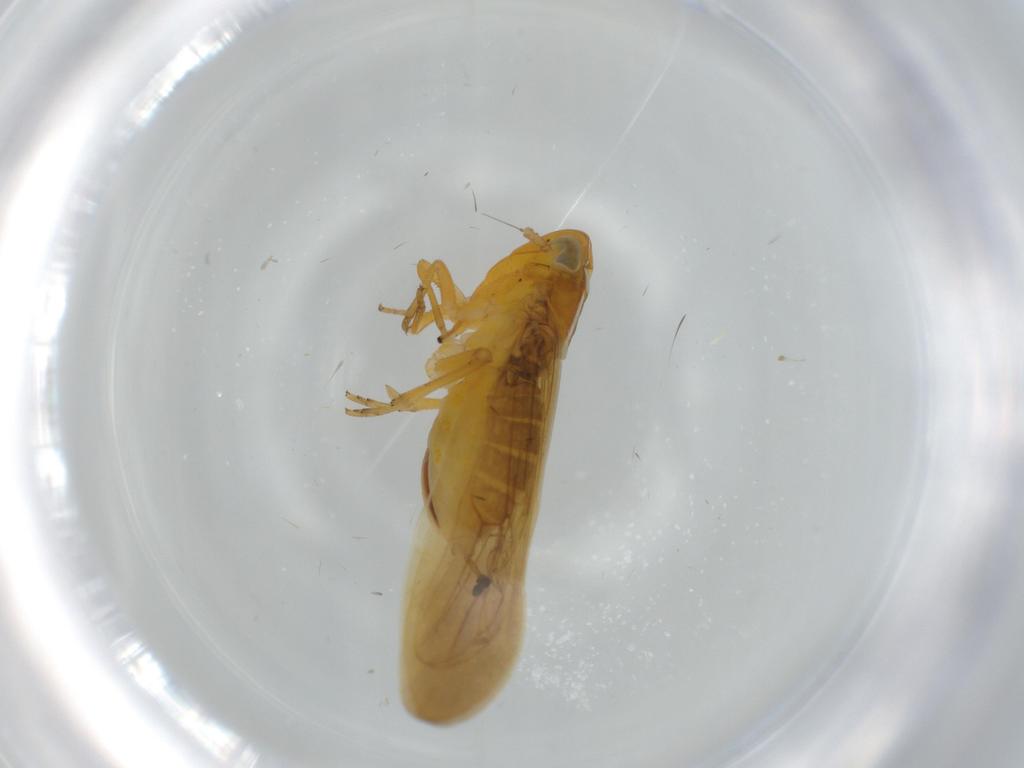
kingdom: Animalia
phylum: Arthropoda
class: Insecta
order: Hemiptera
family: Delphacidae
